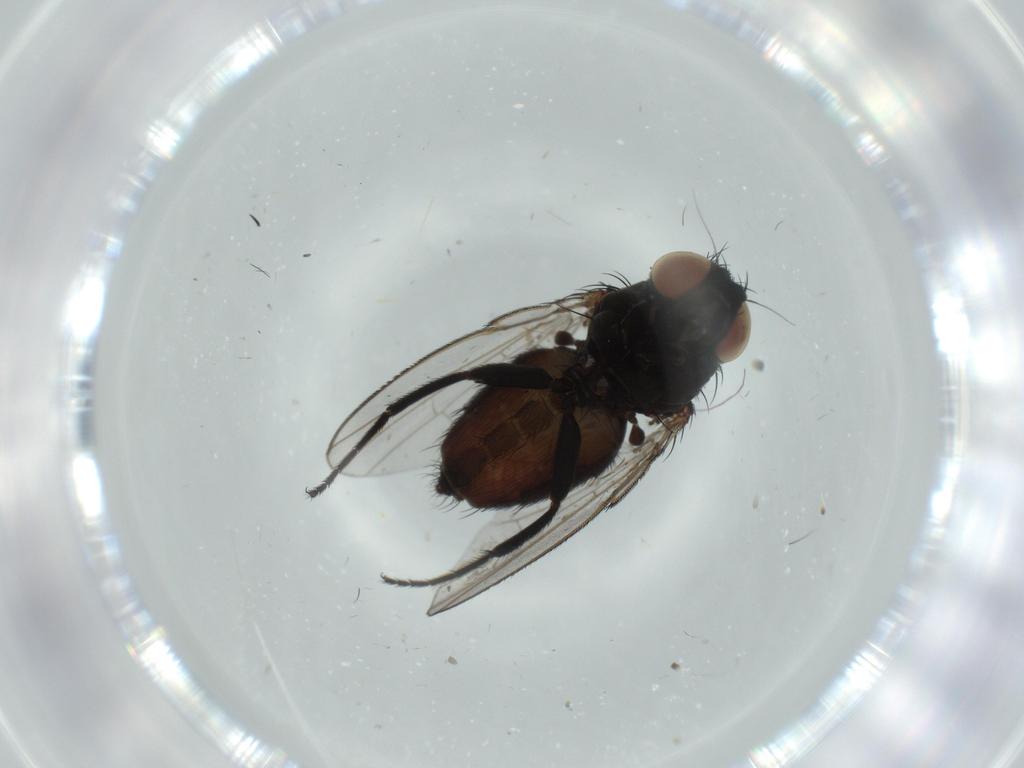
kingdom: Animalia
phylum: Arthropoda
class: Insecta
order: Diptera
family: Milichiidae
